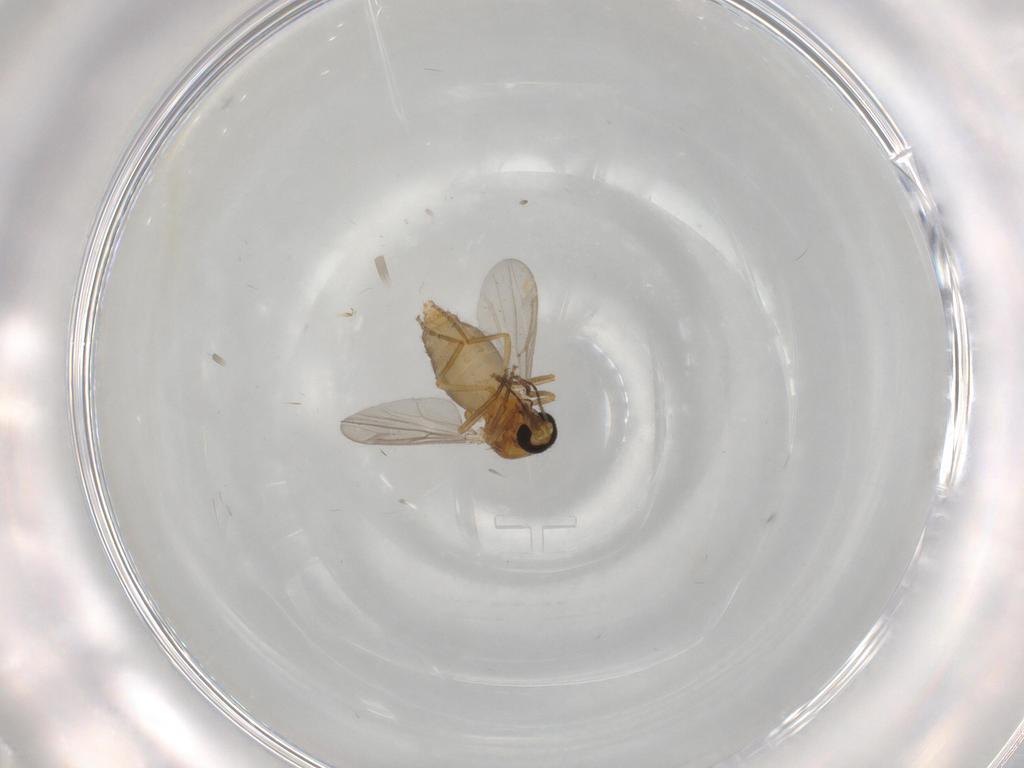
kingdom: Animalia
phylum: Arthropoda
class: Insecta
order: Diptera
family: Ceratopogonidae
